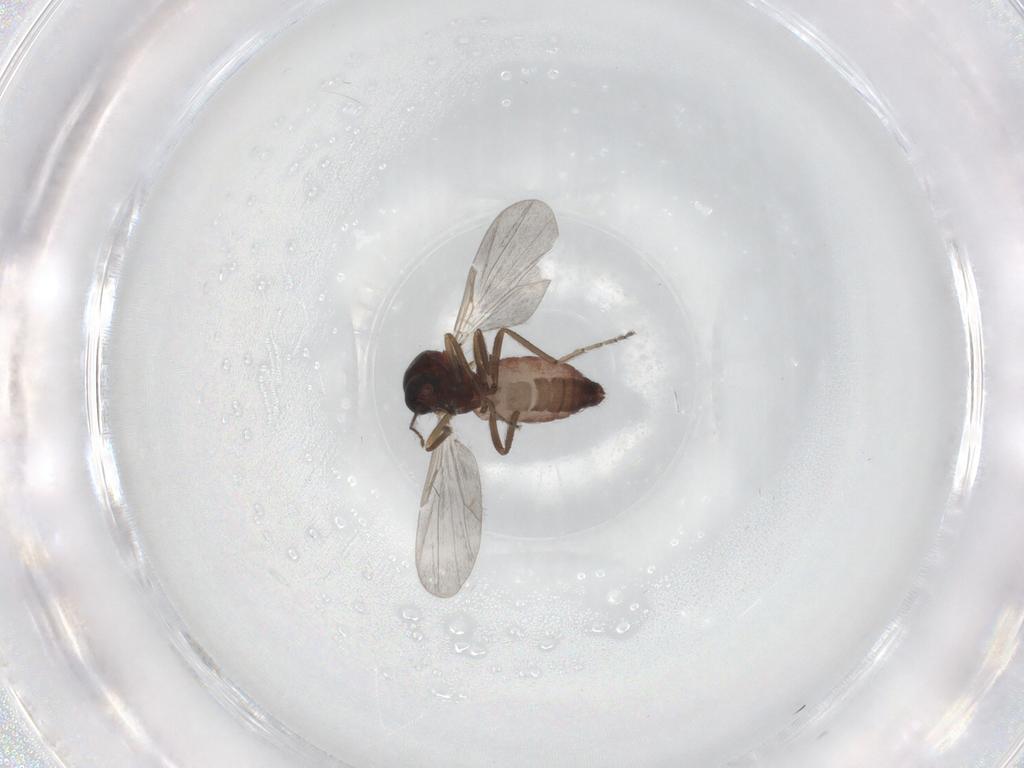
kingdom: Animalia
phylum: Arthropoda
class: Insecta
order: Diptera
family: Ceratopogonidae
